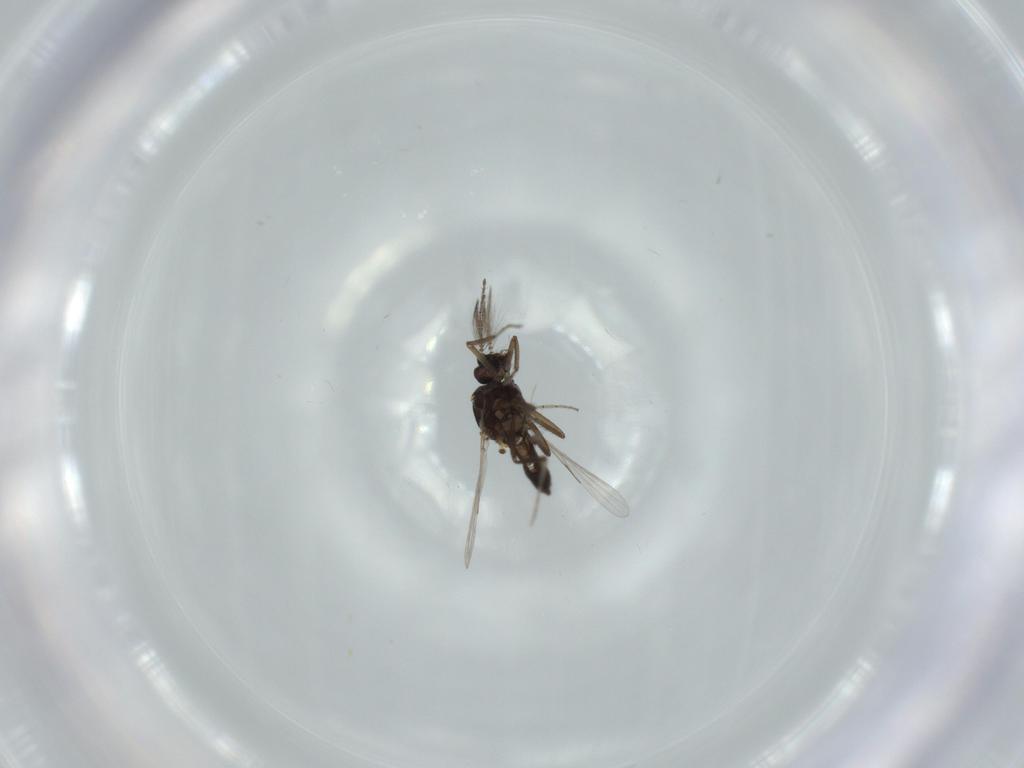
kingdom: Animalia
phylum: Arthropoda
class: Insecta
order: Diptera
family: Ceratopogonidae
